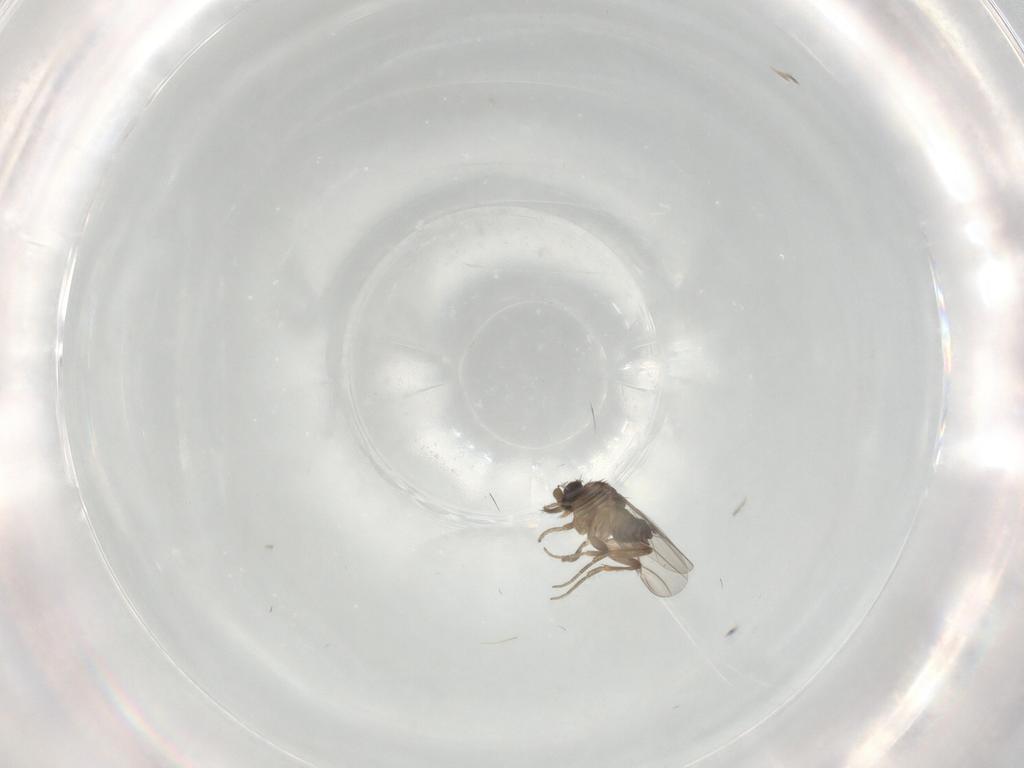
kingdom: Animalia
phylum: Arthropoda
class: Insecta
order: Diptera
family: Phoridae
